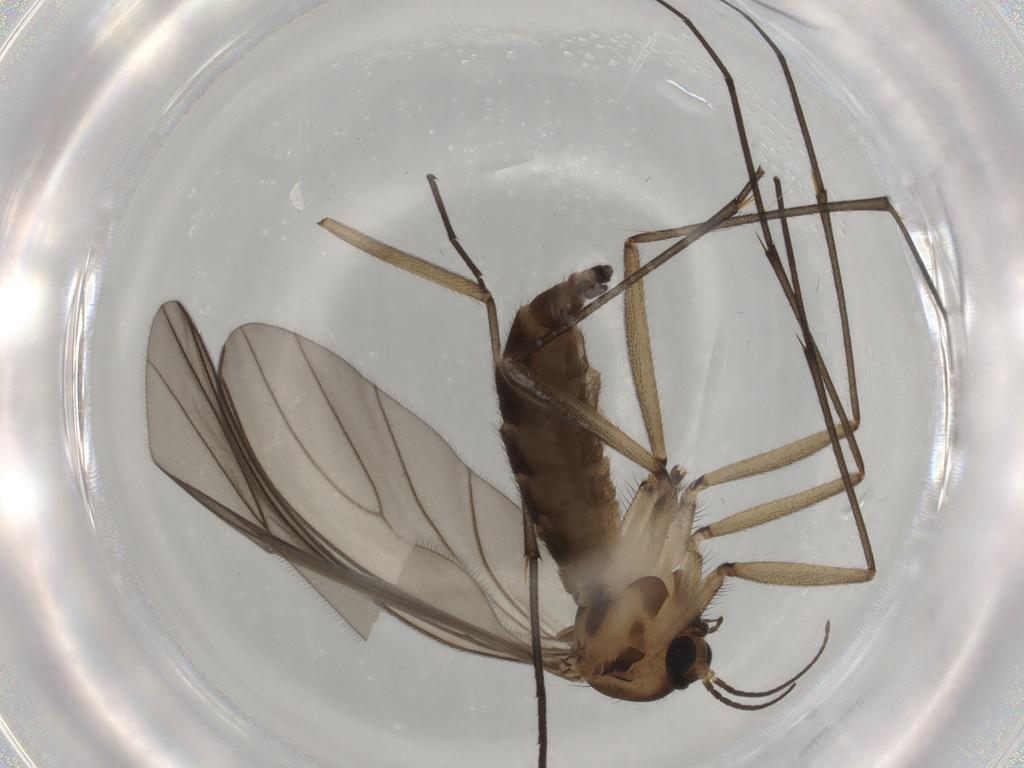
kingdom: Animalia
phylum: Arthropoda
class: Insecta
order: Diptera
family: Sciaridae
